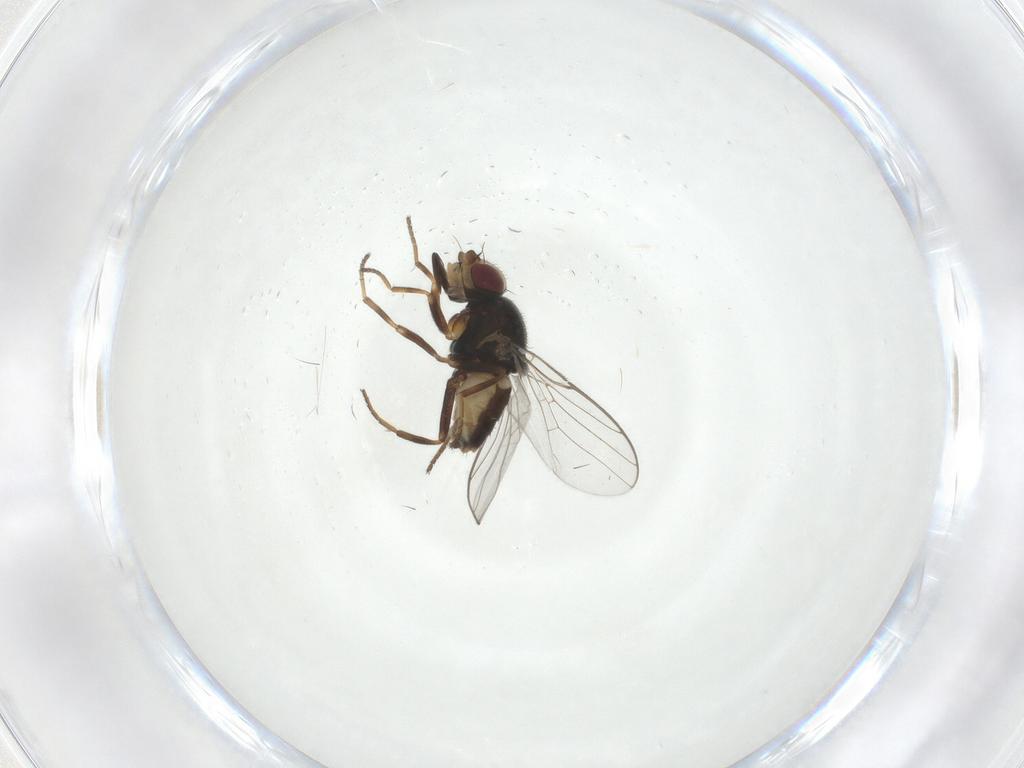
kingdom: Animalia
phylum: Arthropoda
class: Insecta
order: Diptera
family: Chloropidae
